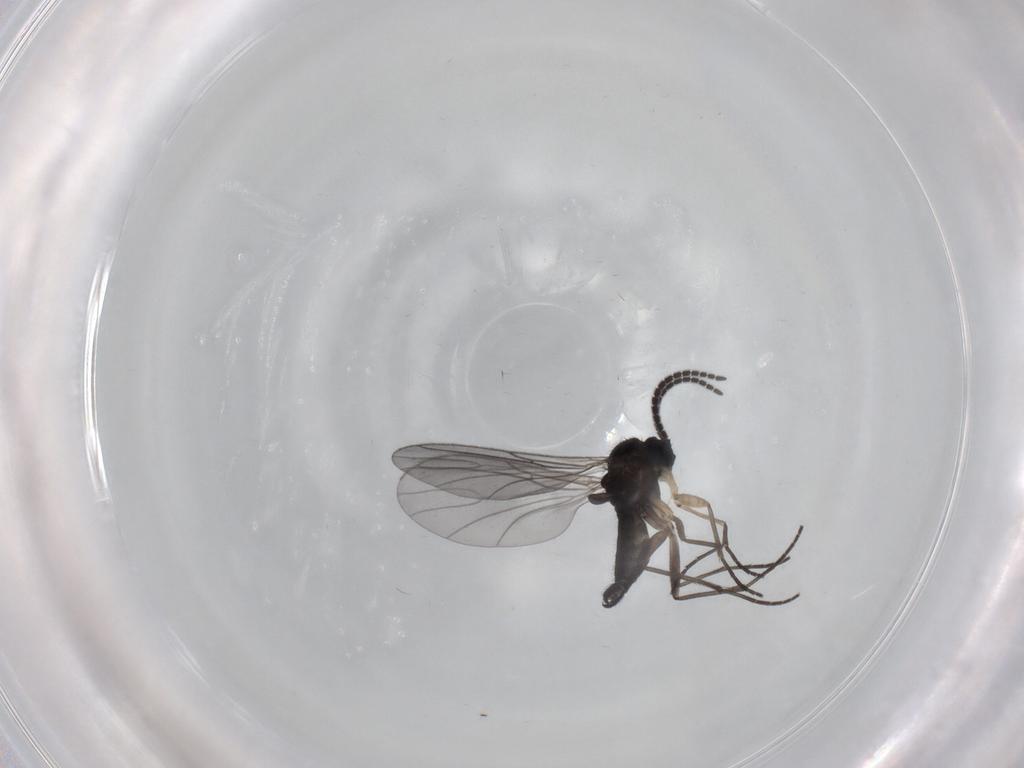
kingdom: Animalia
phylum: Arthropoda
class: Insecta
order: Diptera
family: Sciaridae
